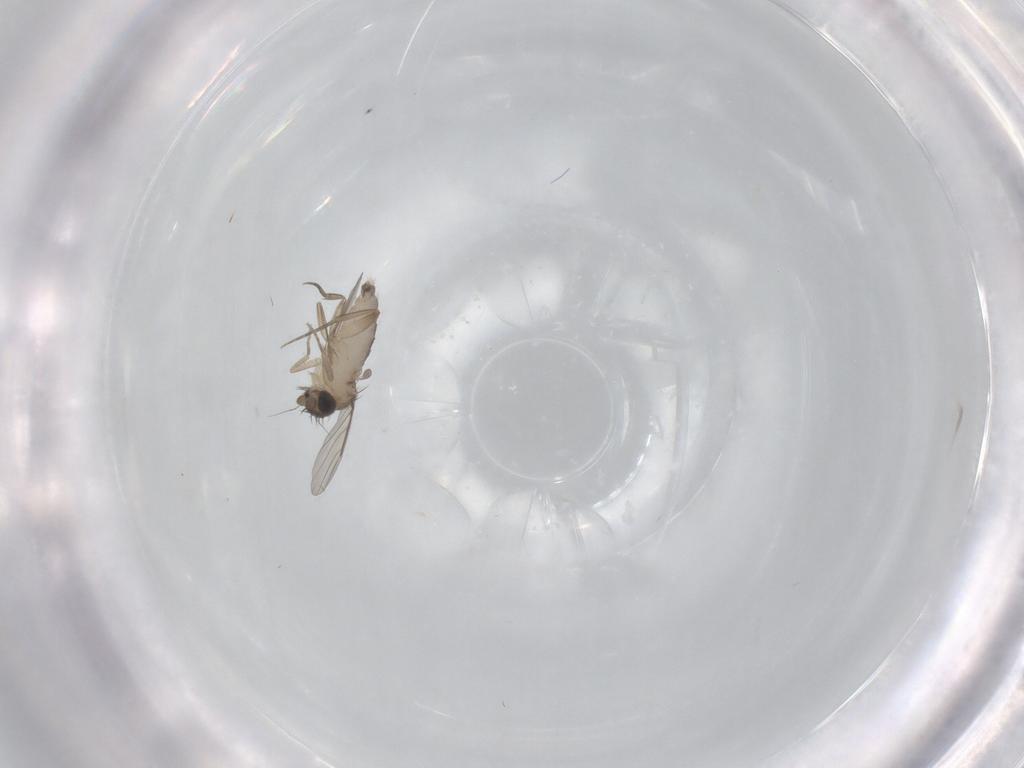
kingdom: Animalia
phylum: Arthropoda
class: Insecta
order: Diptera
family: Phoridae
